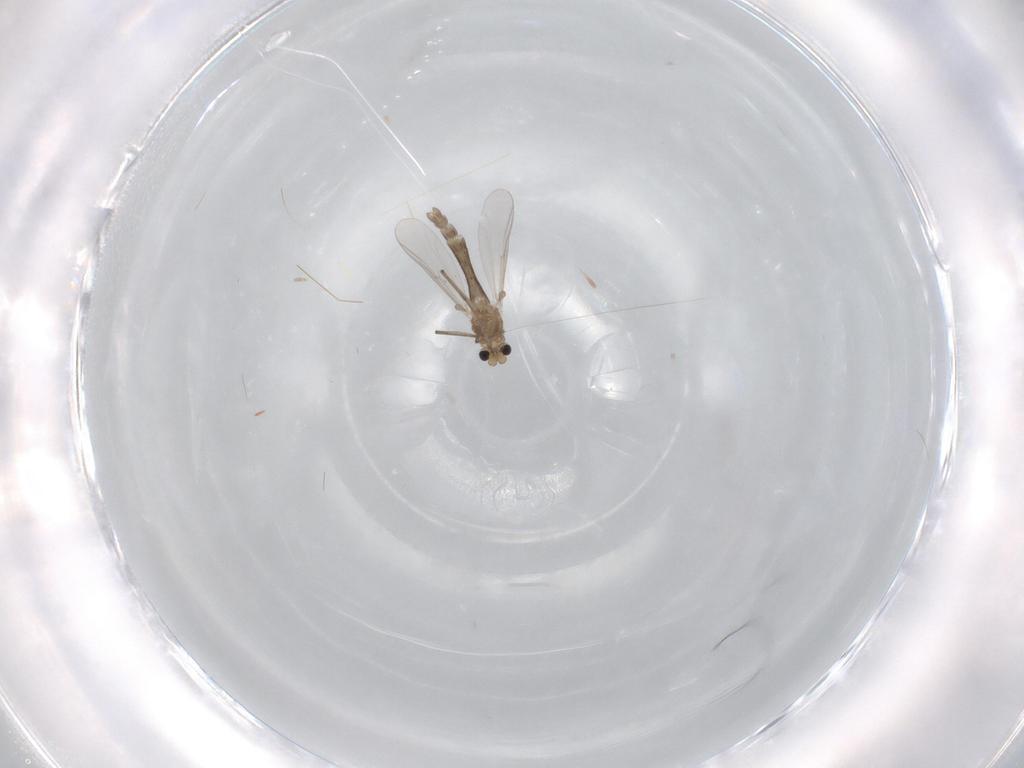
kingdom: Animalia
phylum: Arthropoda
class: Insecta
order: Diptera
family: Chironomidae
